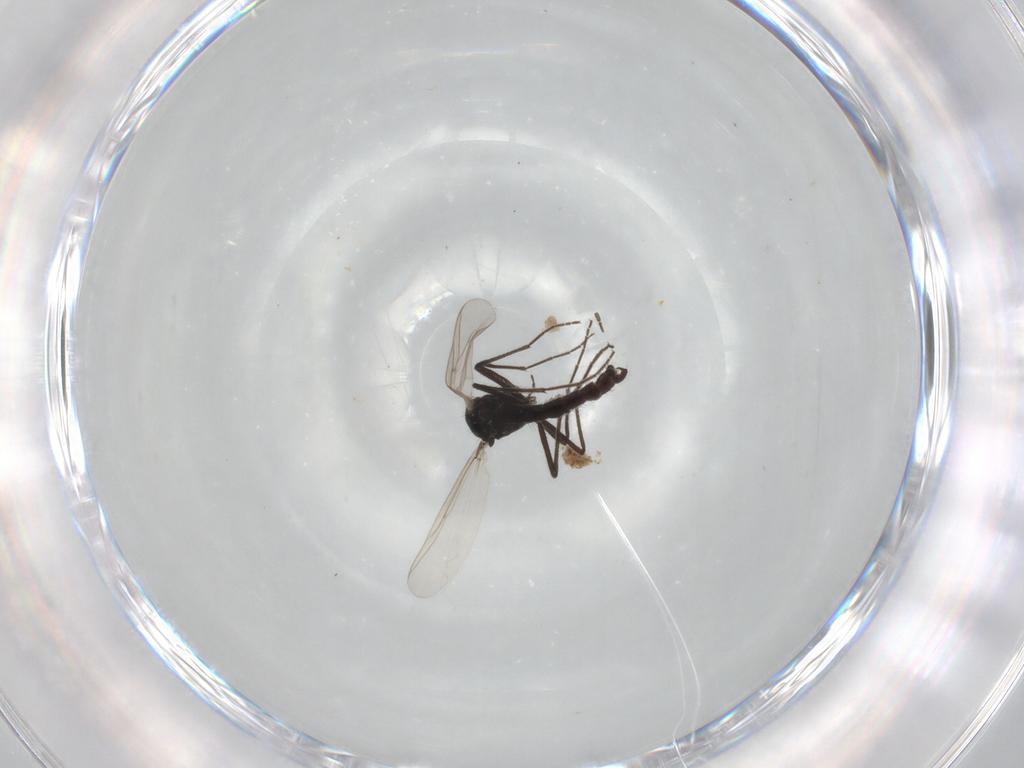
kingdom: Animalia
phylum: Arthropoda
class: Insecta
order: Diptera
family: Chironomidae
